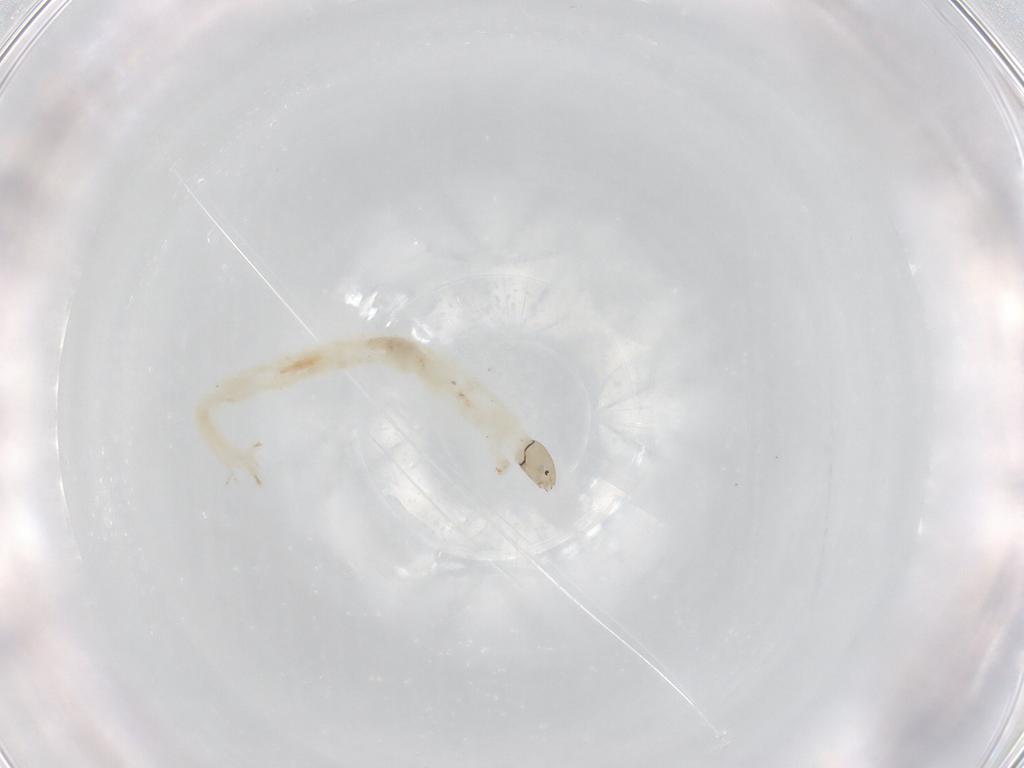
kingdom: Animalia
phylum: Arthropoda
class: Insecta
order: Diptera
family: Chironomidae
